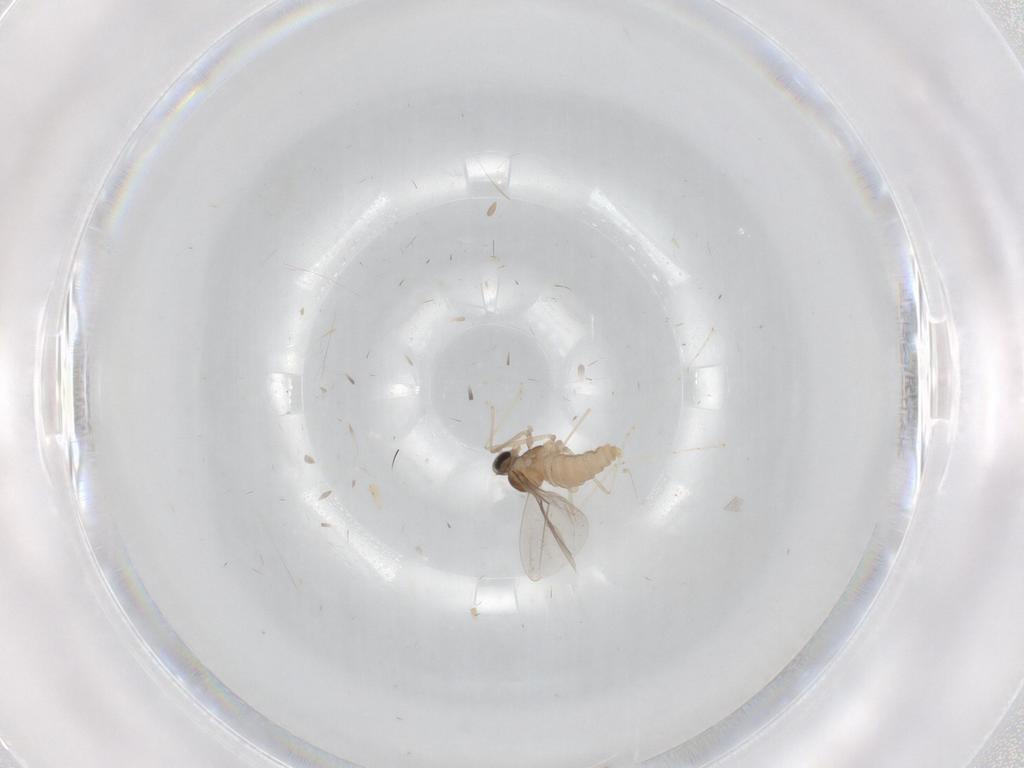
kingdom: Animalia
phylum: Arthropoda
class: Insecta
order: Diptera
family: Cecidomyiidae
